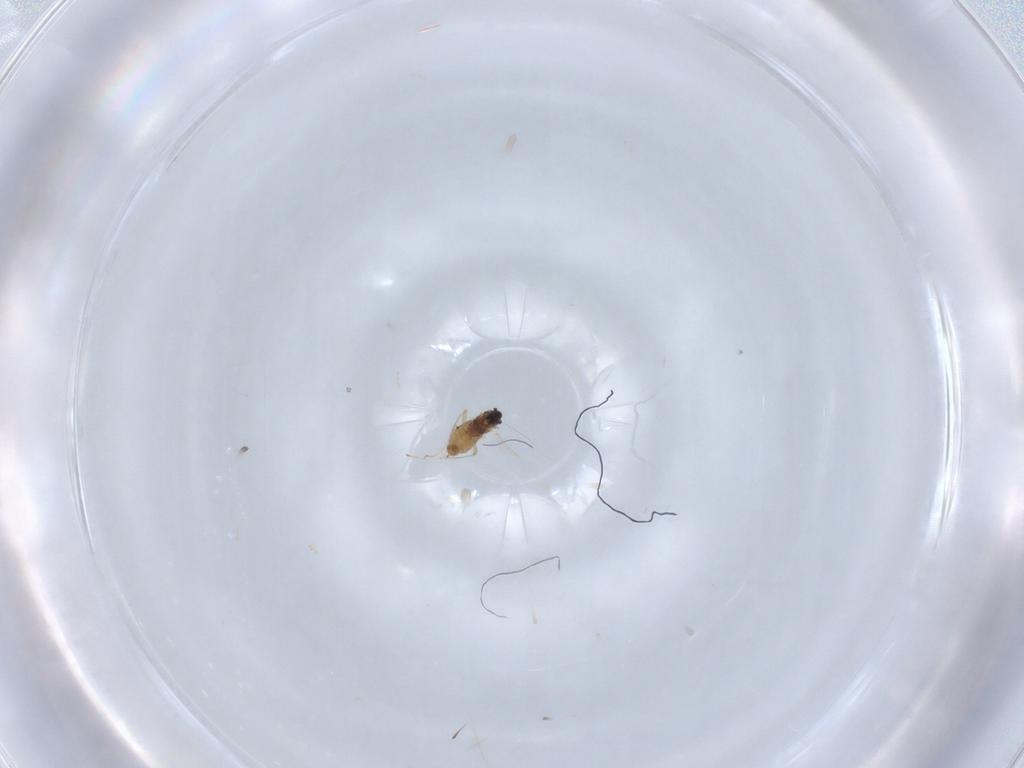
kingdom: Animalia
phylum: Arthropoda
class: Insecta
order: Diptera
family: Cecidomyiidae
